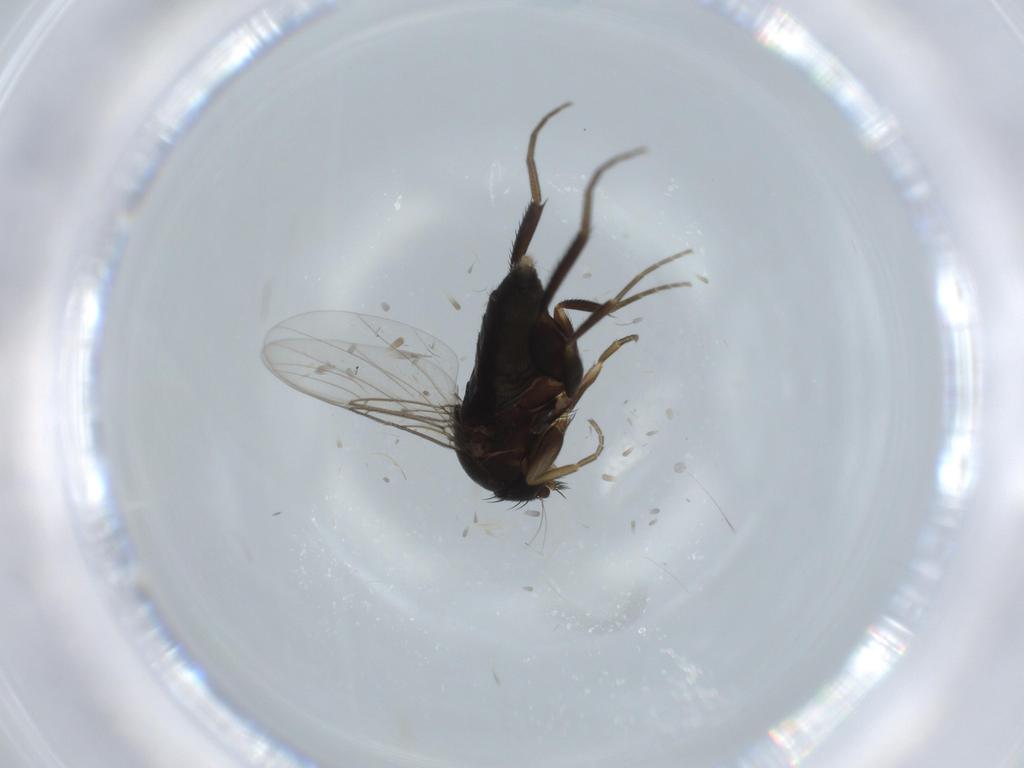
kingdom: Animalia
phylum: Arthropoda
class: Insecta
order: Diptera
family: Phoridae
